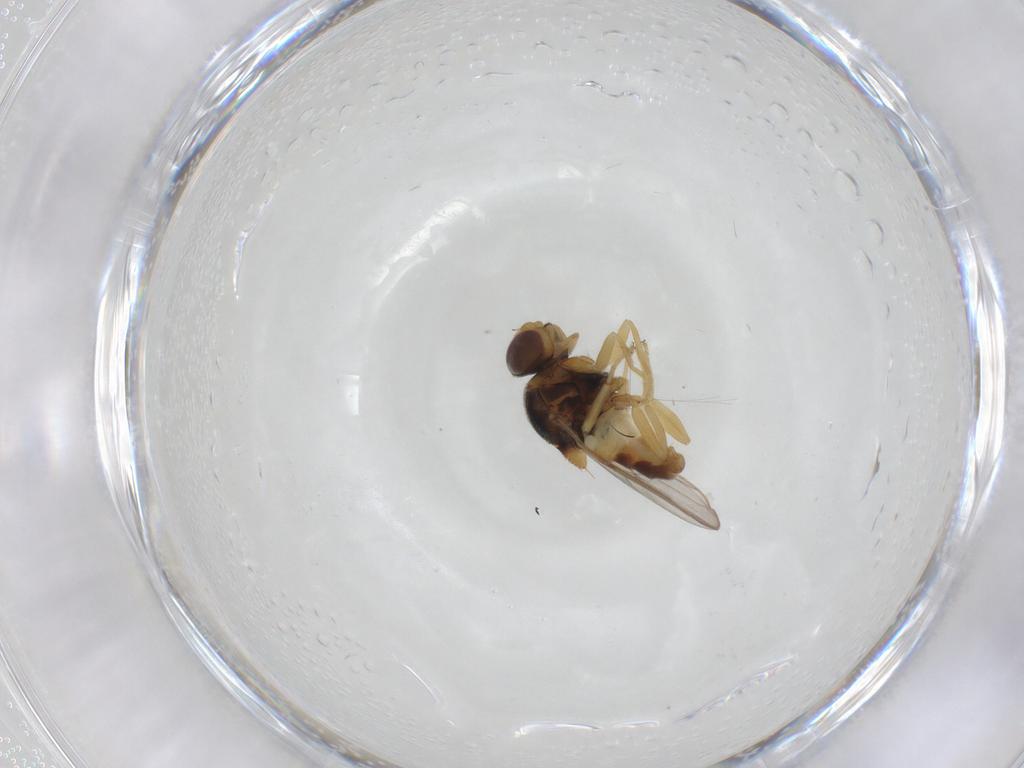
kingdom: Animalia
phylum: Arthropoda
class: Insecta
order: Diptera
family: Chloropidae
